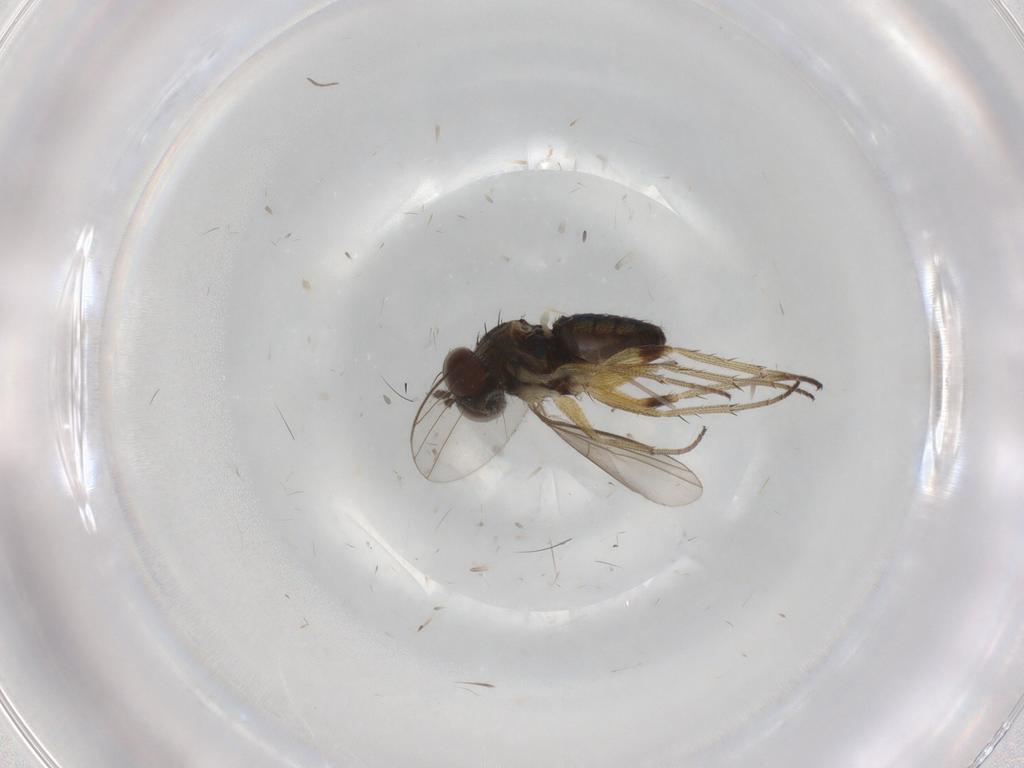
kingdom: Animalia
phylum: Arthropoda
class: Insecta
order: Diptera
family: Dolichopodidae
